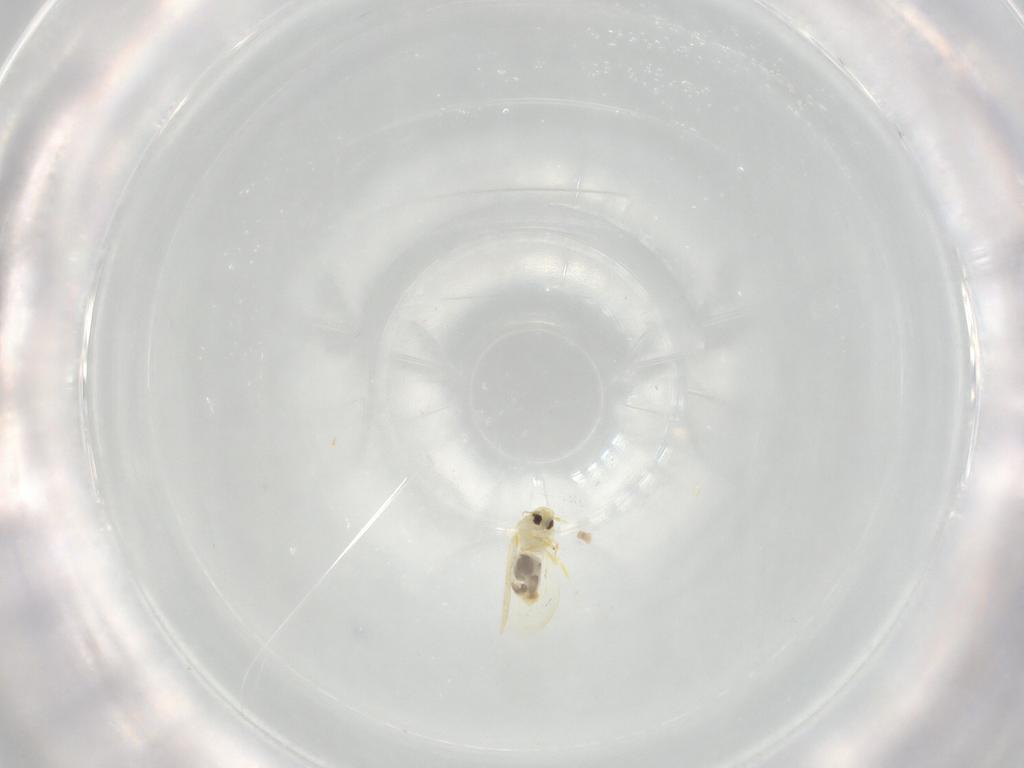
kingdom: Animalia
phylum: Arthropoda
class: Insecta
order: Hemiptera
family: Aleyrodidae
